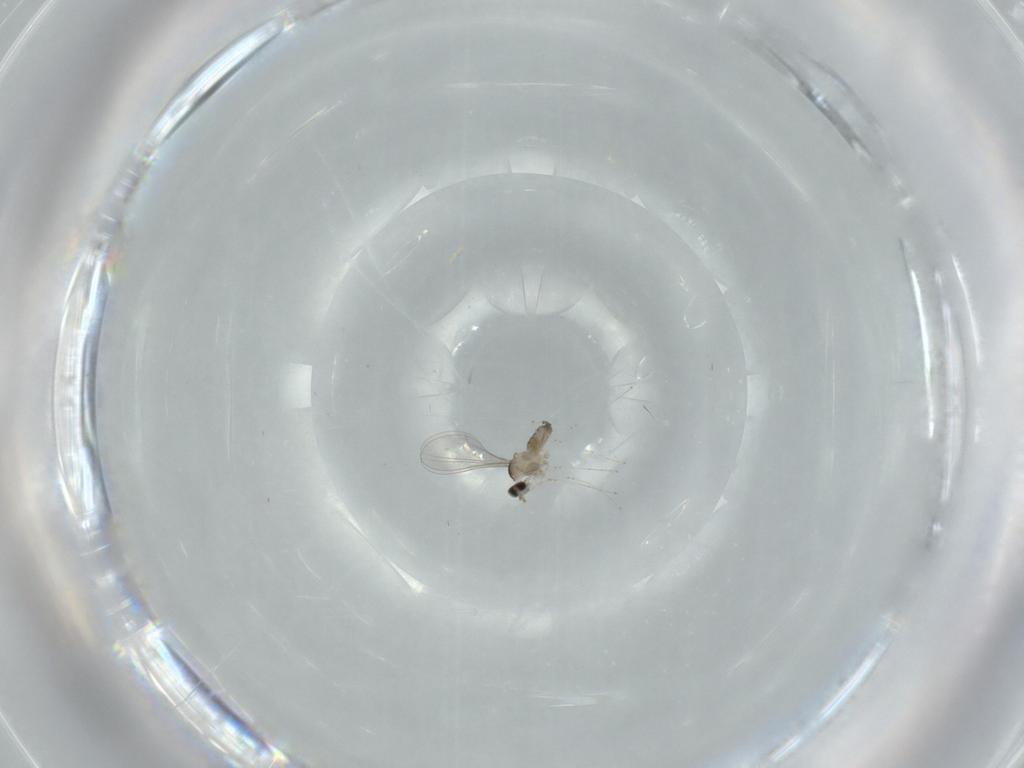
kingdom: Animalia
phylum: Arthropoda
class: Insecta
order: Diptera
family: Cecidomyiidae
